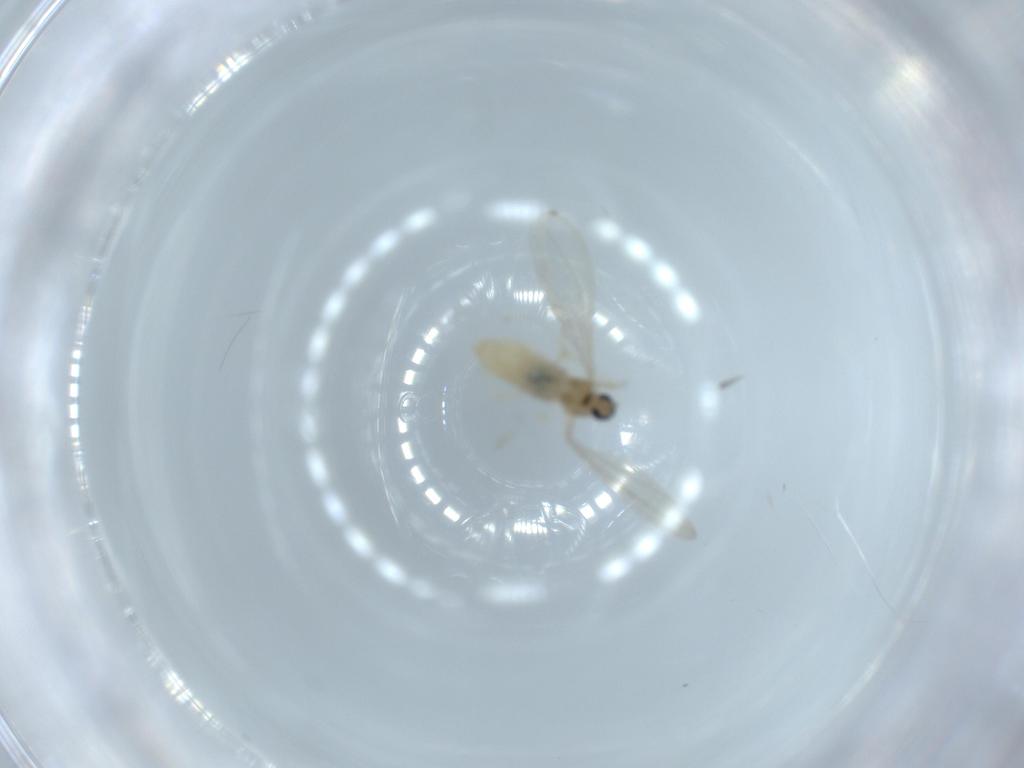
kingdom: Animalia
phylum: Arthropoda
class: Insecta
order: Diptera
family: Cecidomyiidae
